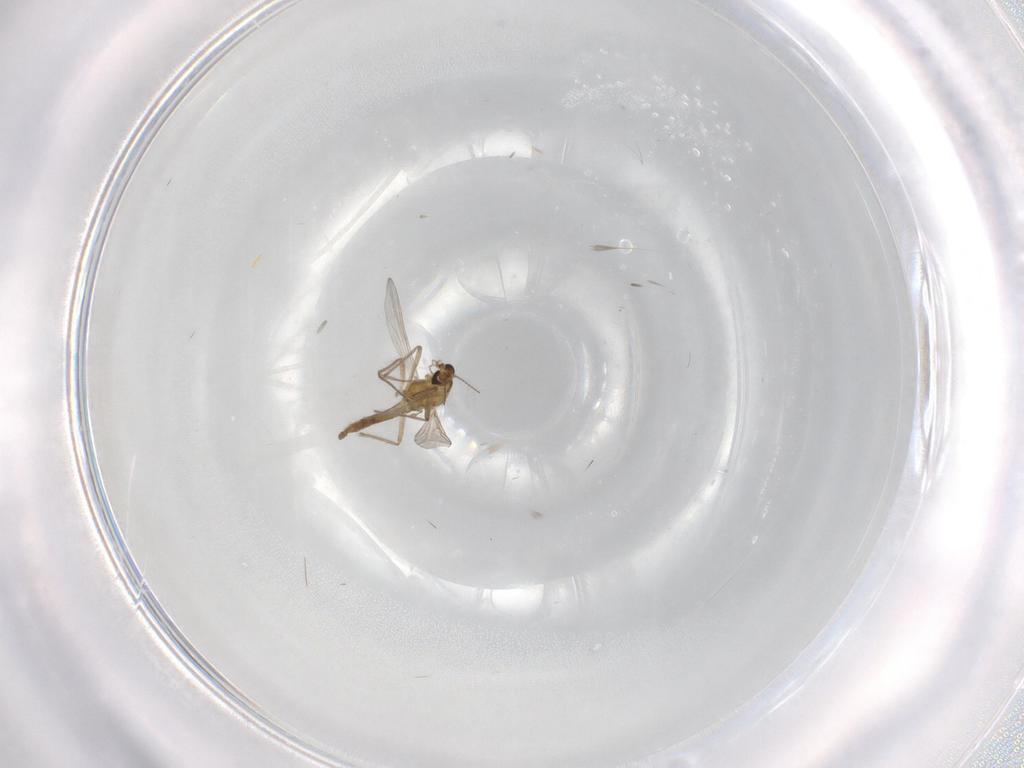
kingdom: Animalia
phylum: Arthropoda
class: Insecta
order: Diptera
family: Chironomidae
